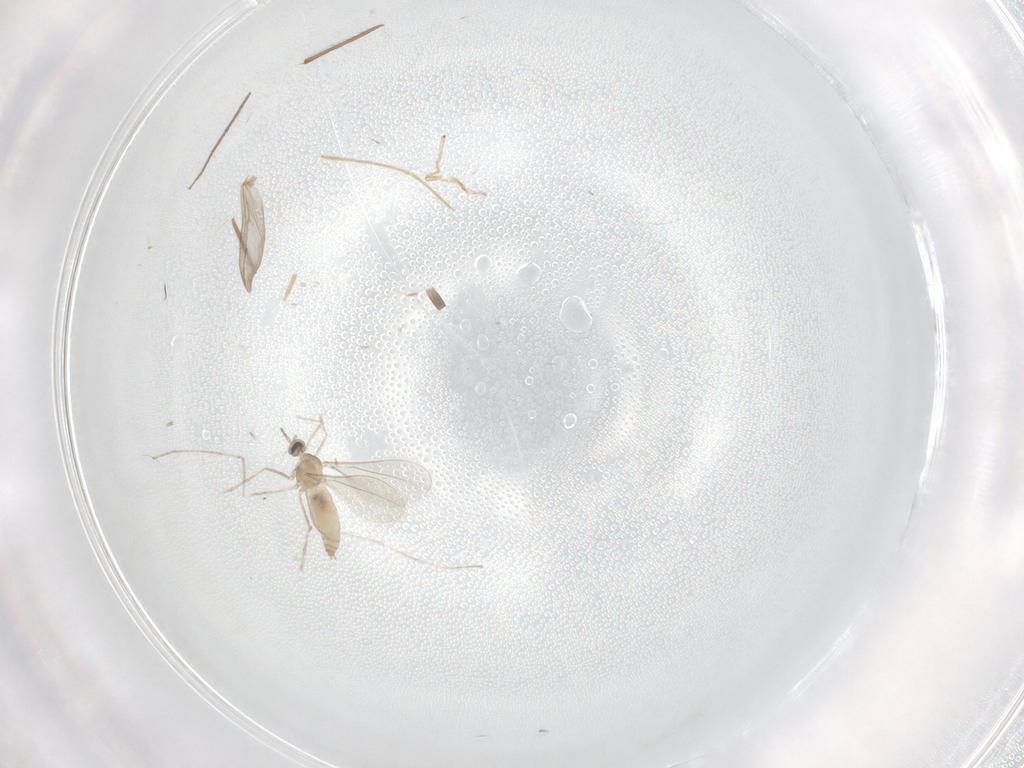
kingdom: Animalia
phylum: Arthropoda
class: Insecta
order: Diptera
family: Cecidomyiidae
